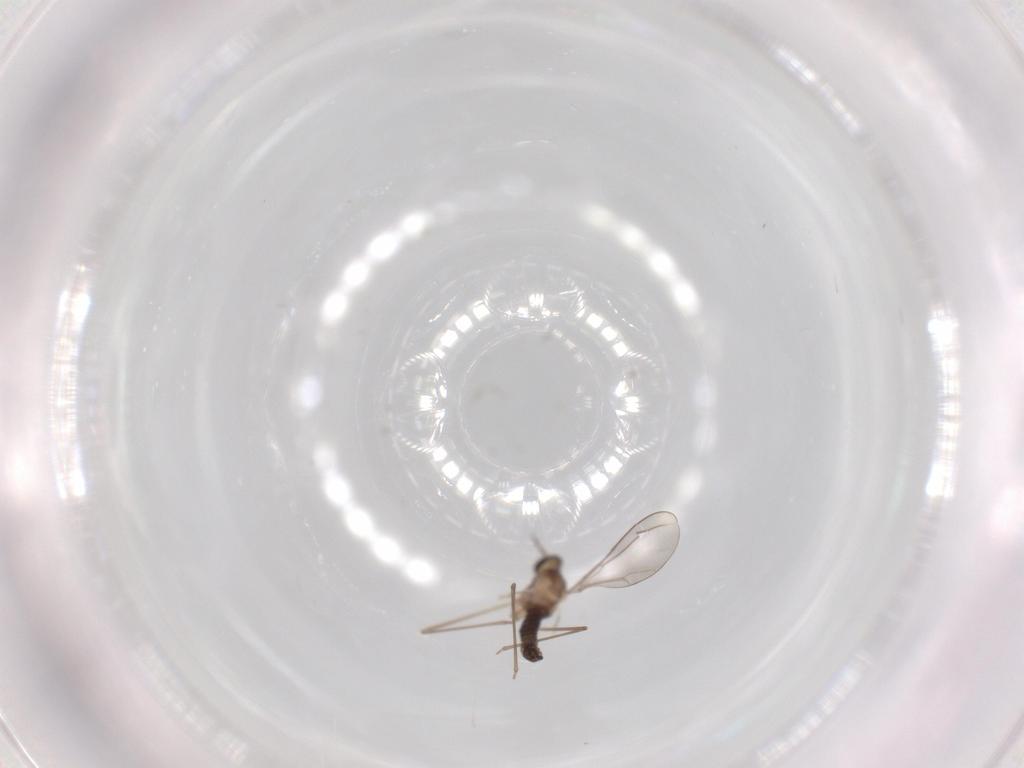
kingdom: Animalia
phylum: Arthropoda
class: Insecta
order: Diptera
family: Cecidomyiidae
